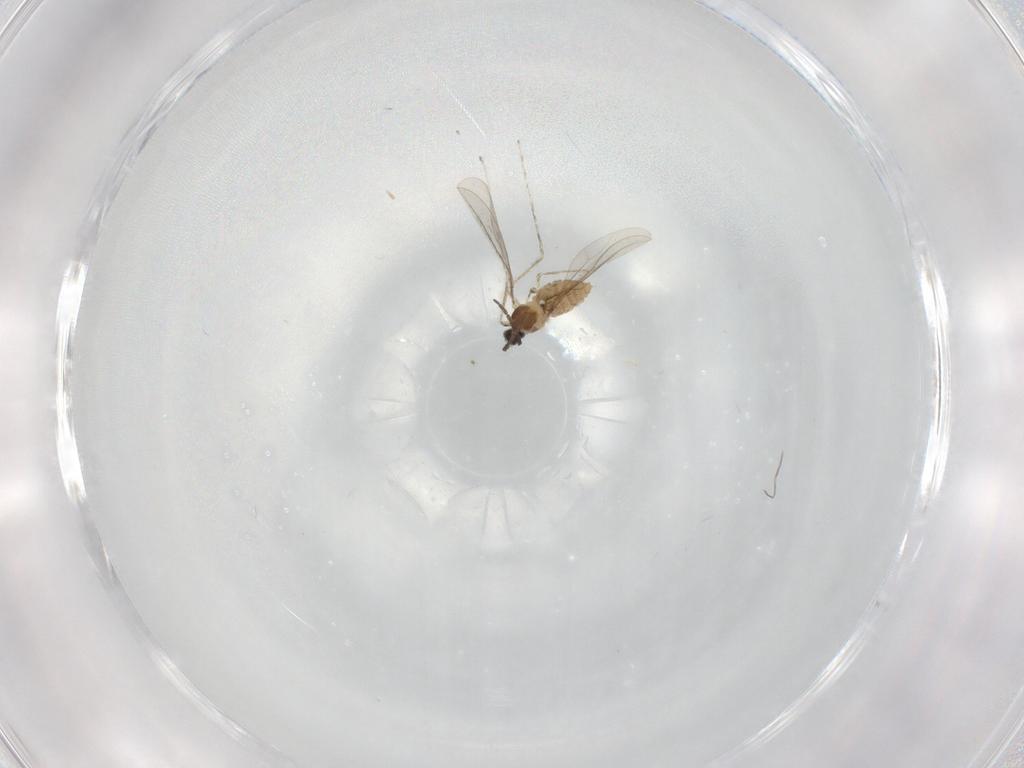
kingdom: Animalia
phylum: Arthropoda
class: Insecta
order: Diptera
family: Cecidomyiidae
